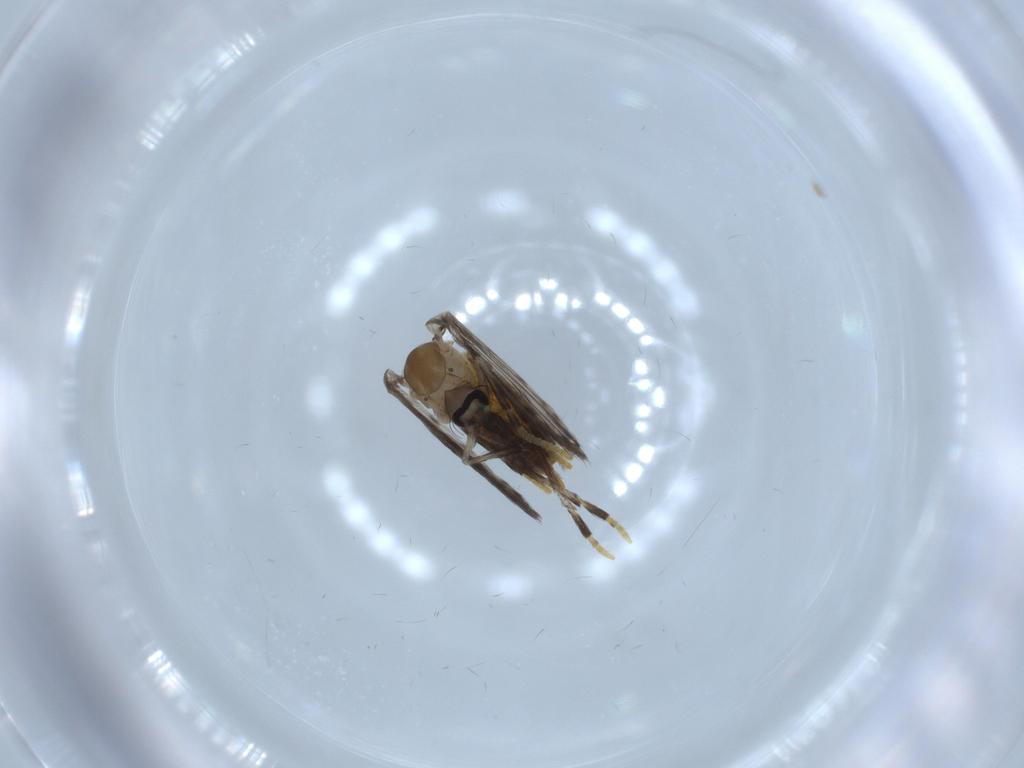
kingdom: Animalia
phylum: Arthropoda
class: Insecta
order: Diptera
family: Psychodidae
